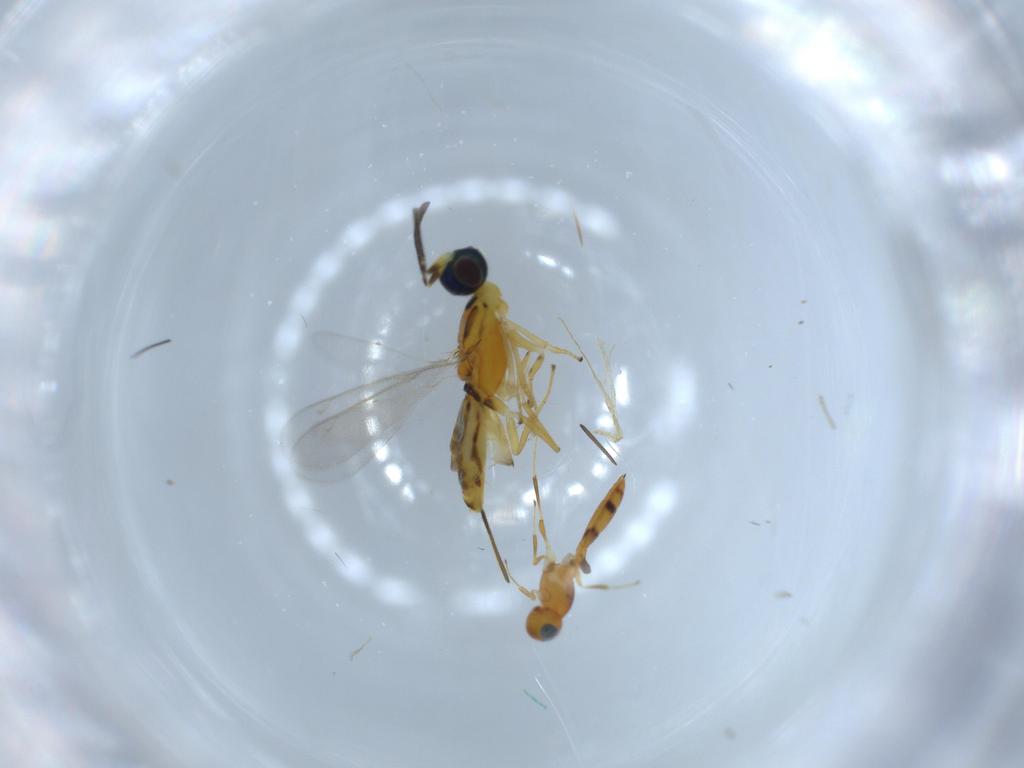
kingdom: Animalia
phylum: Arthropoda
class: Insecta
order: Hymenoptera
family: Scelionidae
